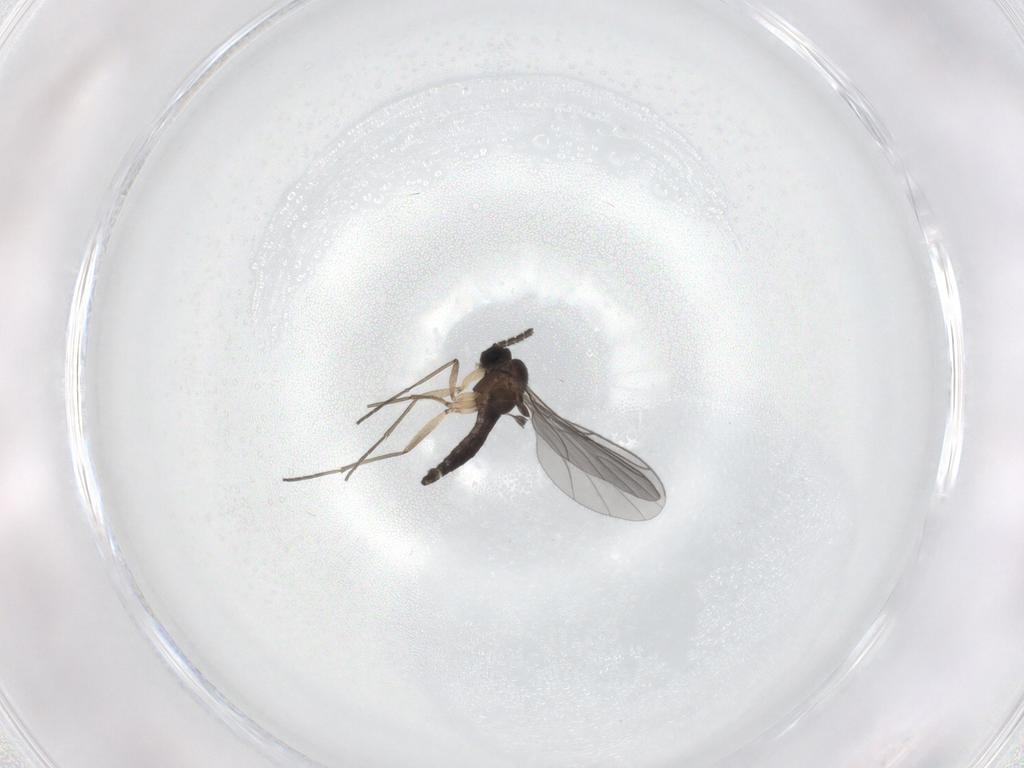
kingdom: Animalia
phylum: Arthropoda
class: Insecta
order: Diptera
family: Sciaridae
